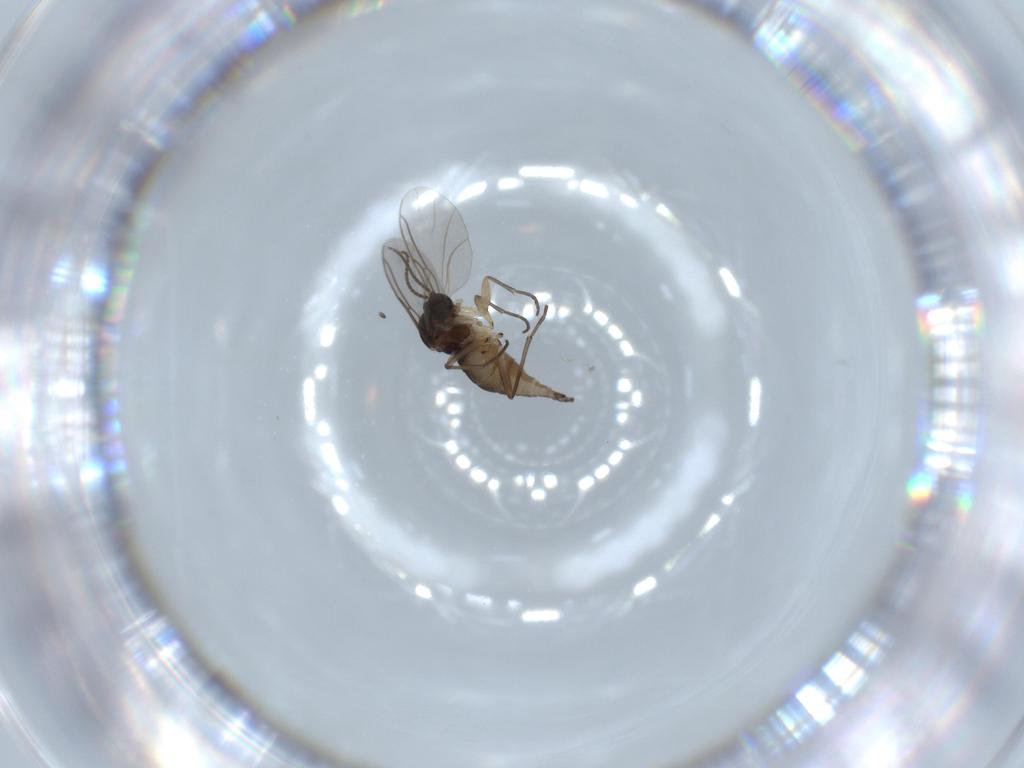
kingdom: Animalia
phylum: Arthropoda
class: Insecta
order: Diptera
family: Sciaridae
